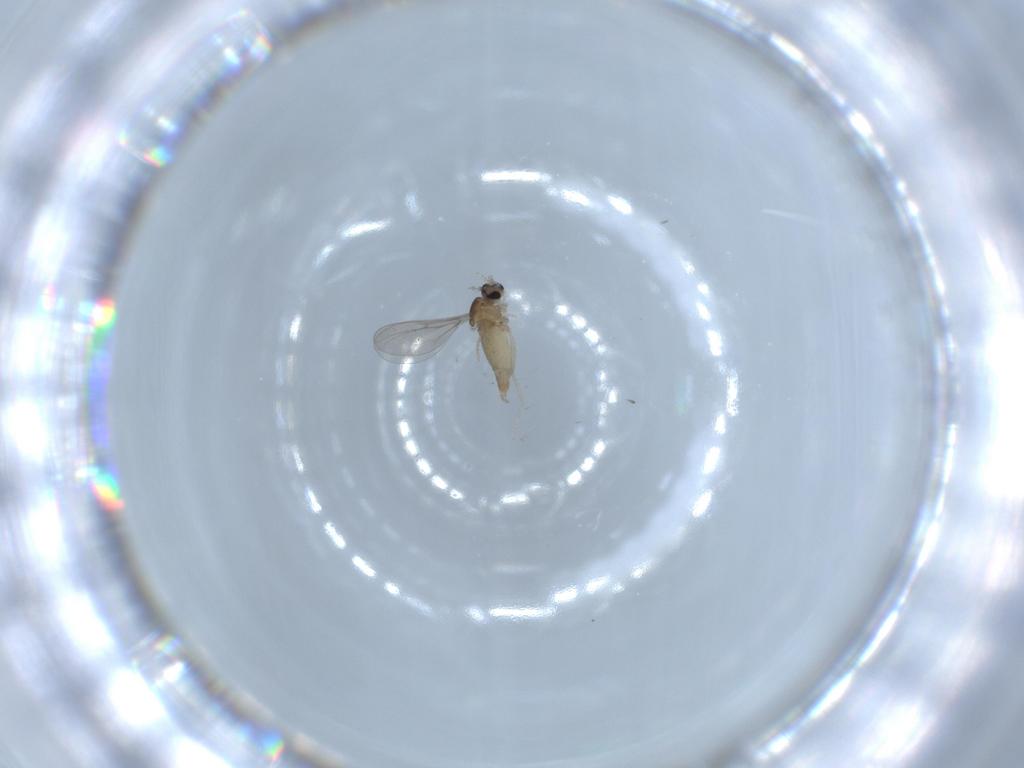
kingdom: Animalia
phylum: Arthropoda
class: Insecta
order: Diptera
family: Cecidomyiidae
